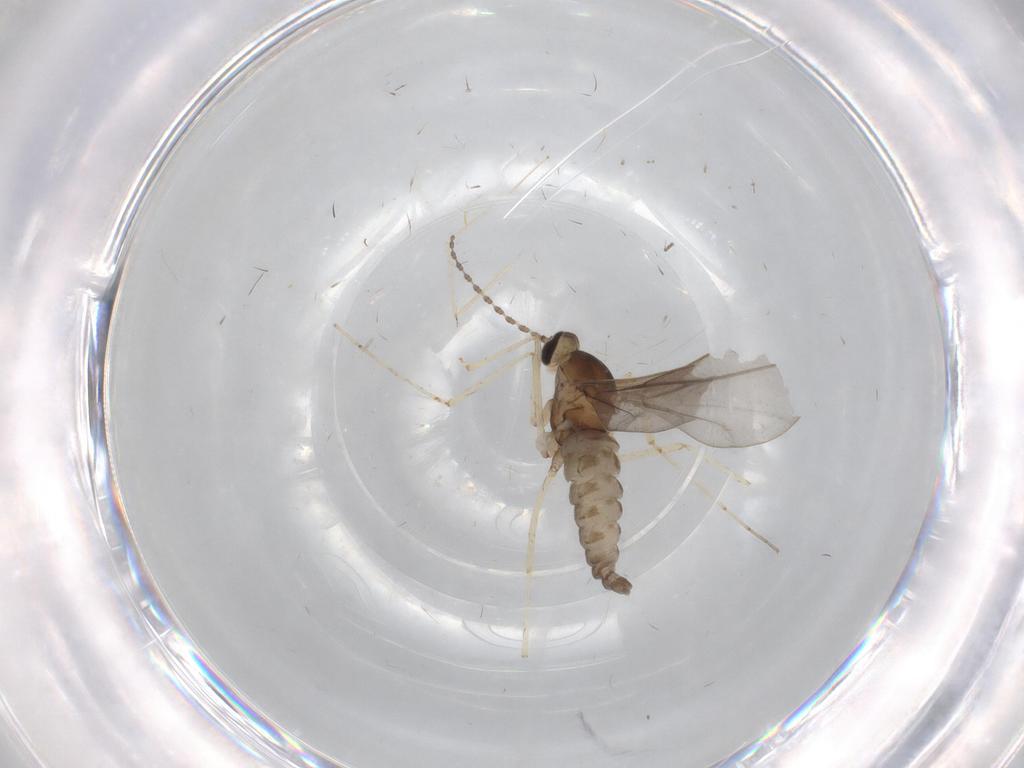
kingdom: Animalia
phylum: Arthropoda
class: Insecta
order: Diptera
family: Cecidomyiidae
